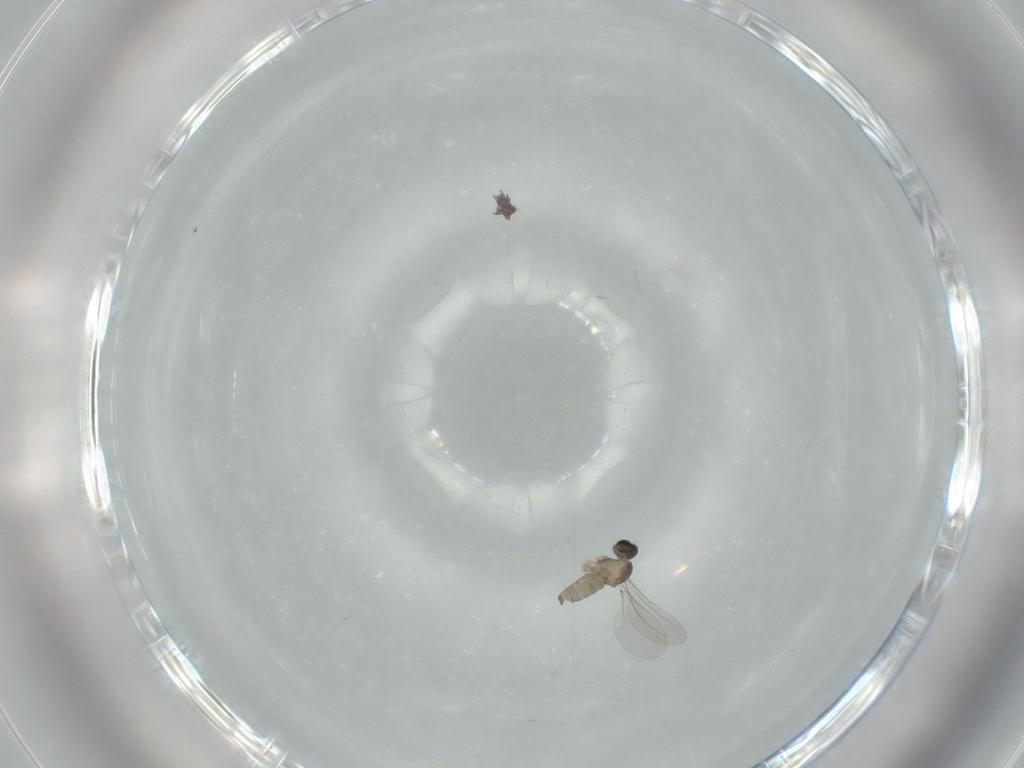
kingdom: Animalia
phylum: Arthropoda
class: Insecta
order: Diptera
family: Cecidomyiidae
